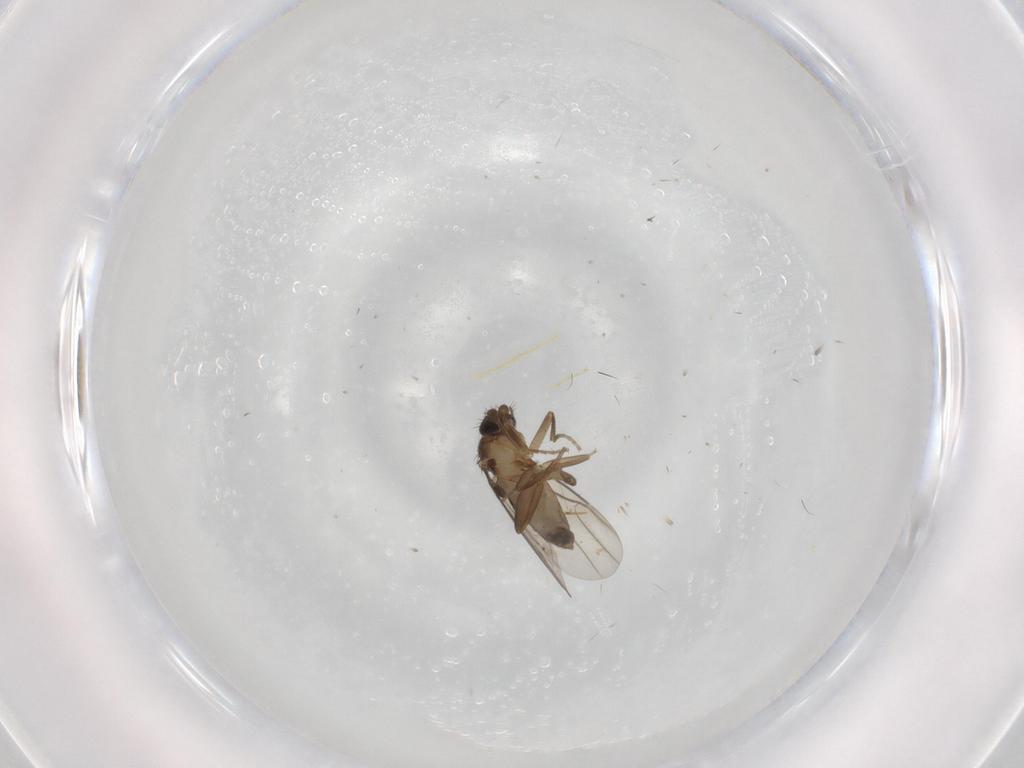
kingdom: Animalia
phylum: Arthropoda
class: Insecta
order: Diptera
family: Phoridae
